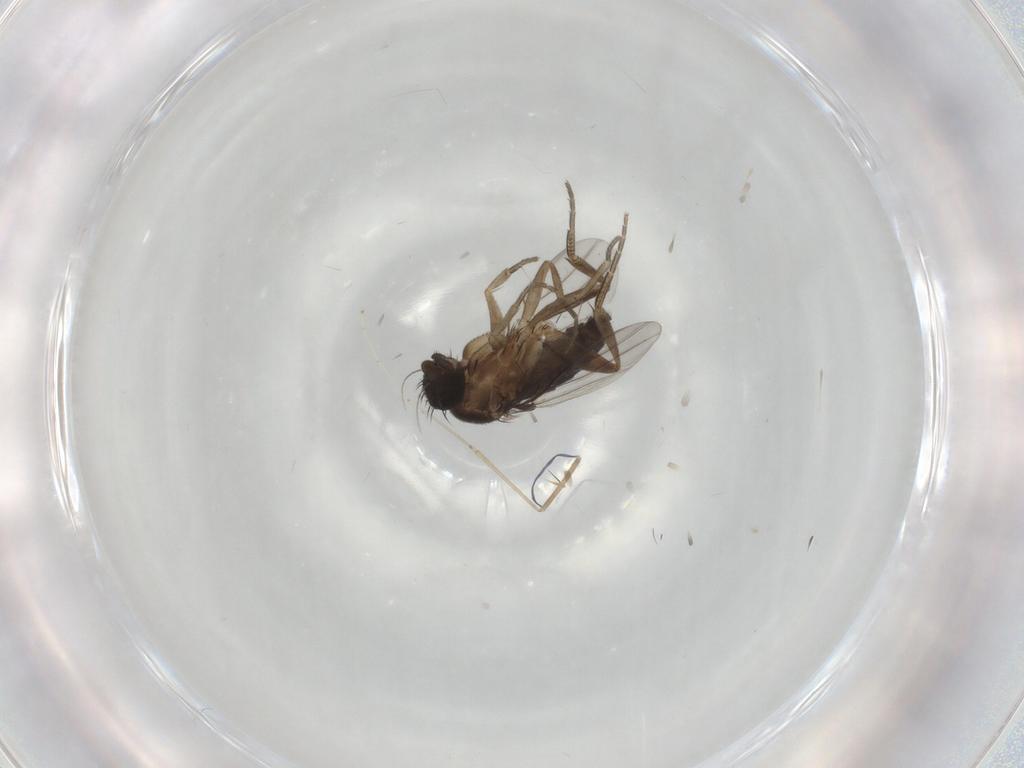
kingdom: Animalia
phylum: Arthropoda
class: Insecta
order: Diptera
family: Phoridae
